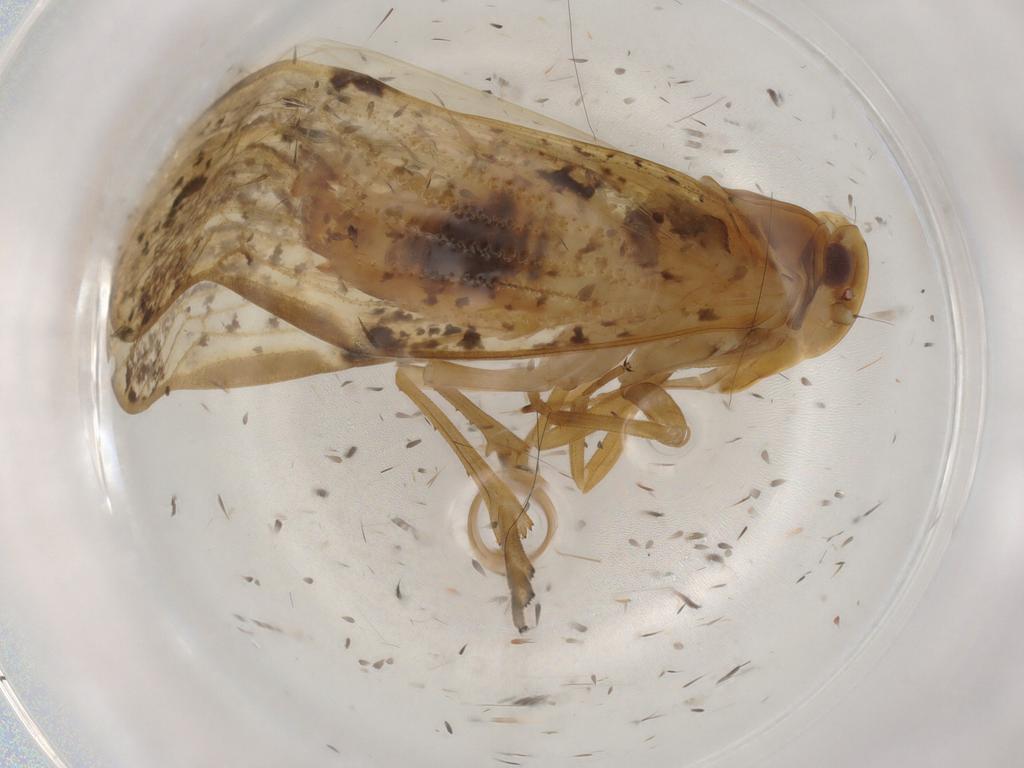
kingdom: Animalia
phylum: Arthropoda
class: Insecta
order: Hemiptera
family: Cixiidae
